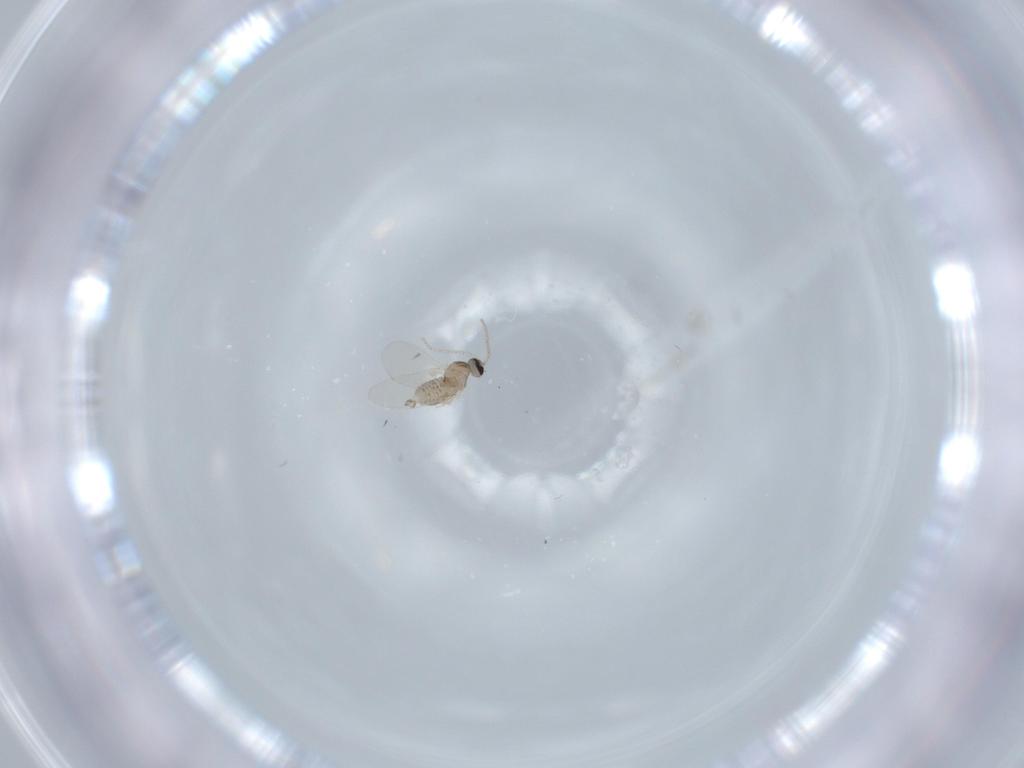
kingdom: Animalia
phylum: Arthropoda
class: Insecta
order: Diptera
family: Cecidomyiidae
